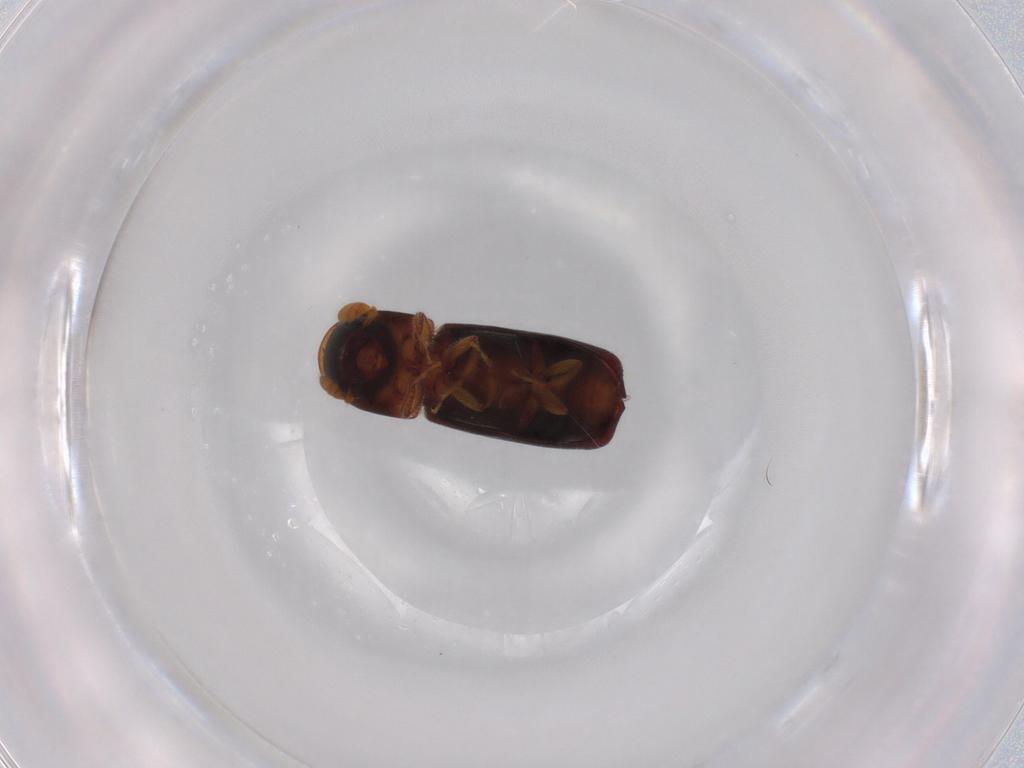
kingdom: Animalia
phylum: Arthropoda
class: Insecta
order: Coleoptera
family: Curculionidae
